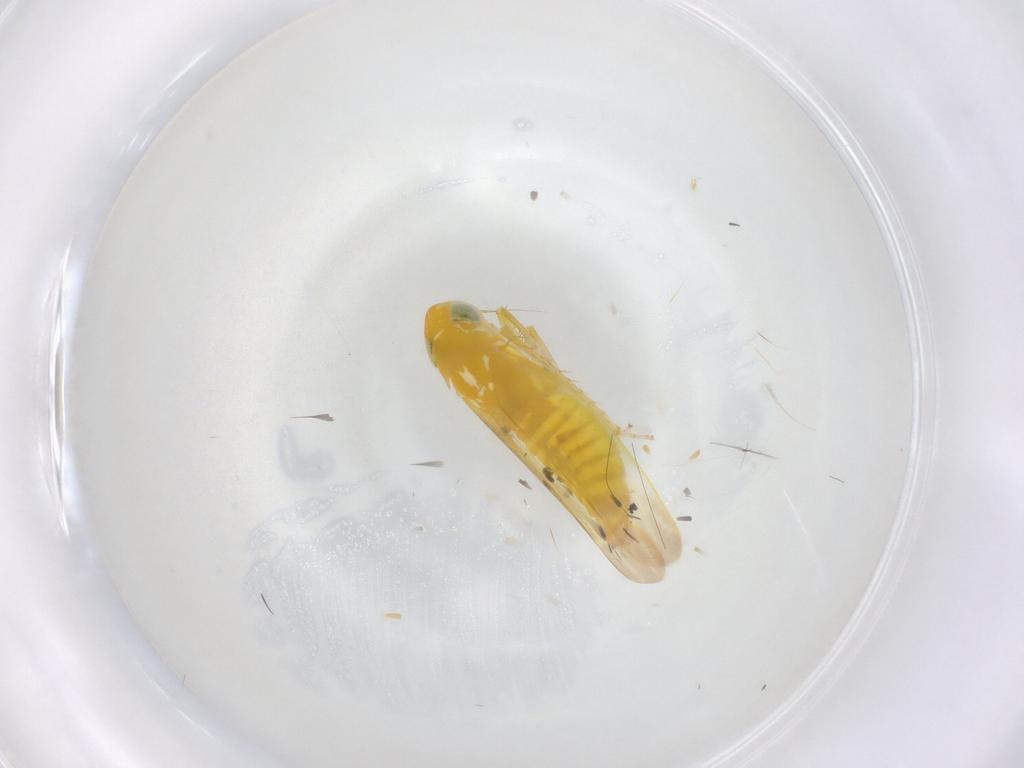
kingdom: Animalia
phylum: Arthropoda
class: Insecta
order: Hemiptera
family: Cicadellidae
